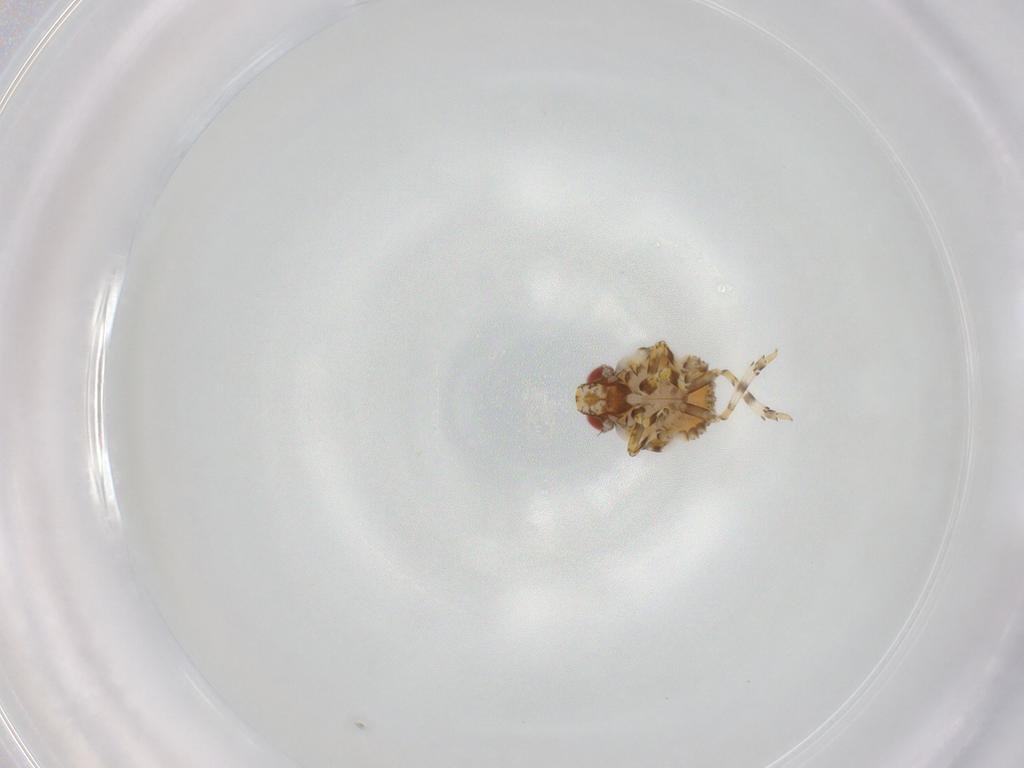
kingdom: Animalia
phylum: Arthropoda
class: Insecta
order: Hemiptera
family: Fulgoroidea_incertae_sedis
